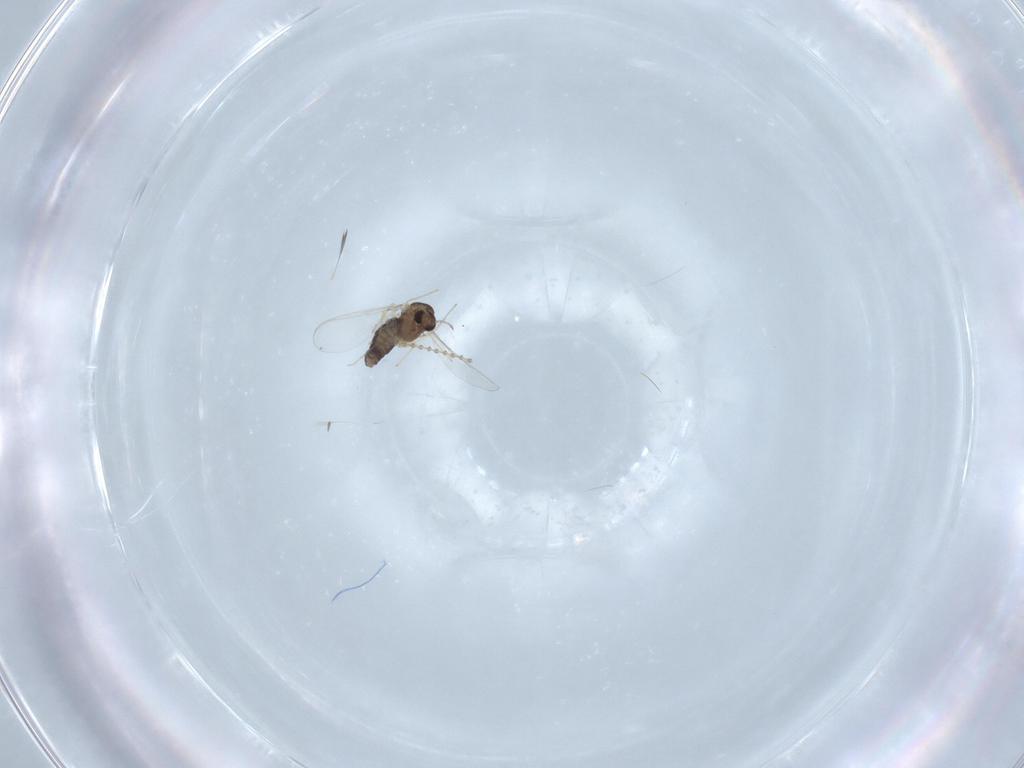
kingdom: Animalia
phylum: Arthropoda
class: Insecta
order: Diptera
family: Chironomidae
